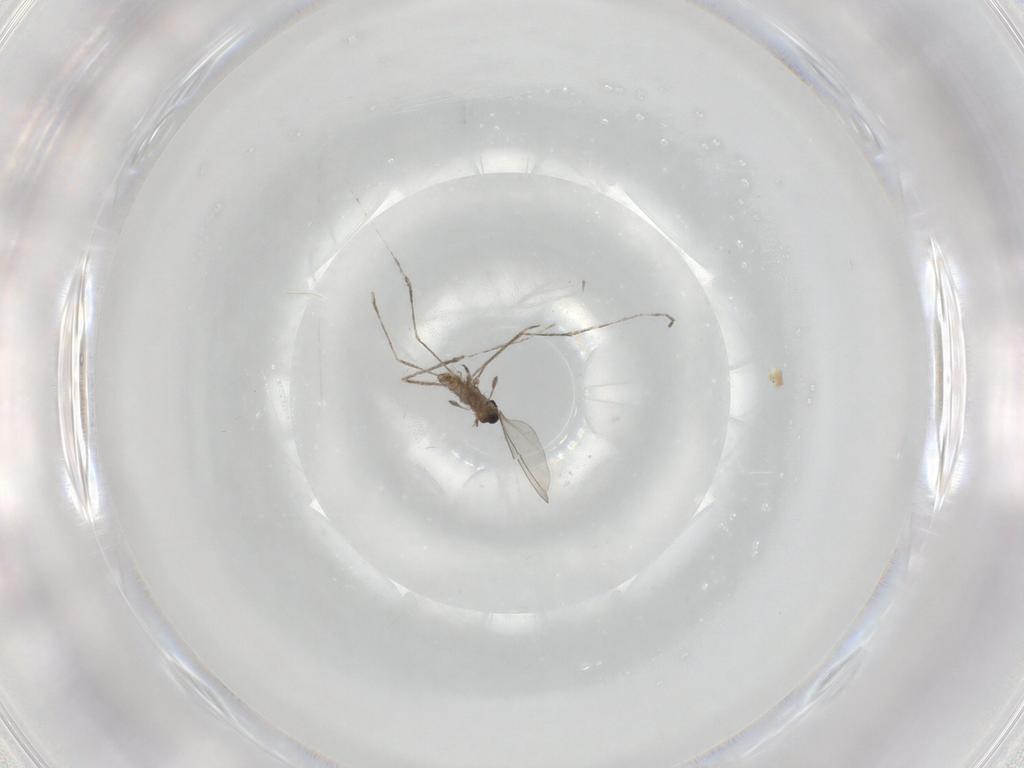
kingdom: Animalia
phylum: Arthropoda
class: Insecta
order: Diptera
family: Cecidomyiidae
